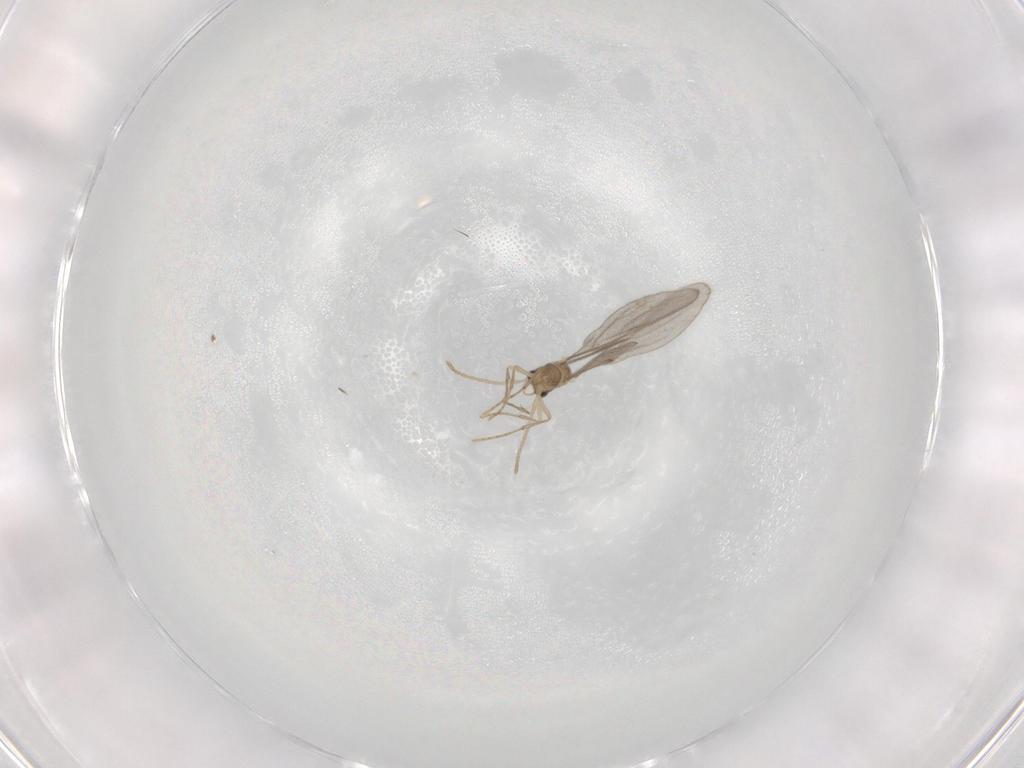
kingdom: Animalia
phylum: Arthropoda
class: Insecta
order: Hymenoptera
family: Formicidae
